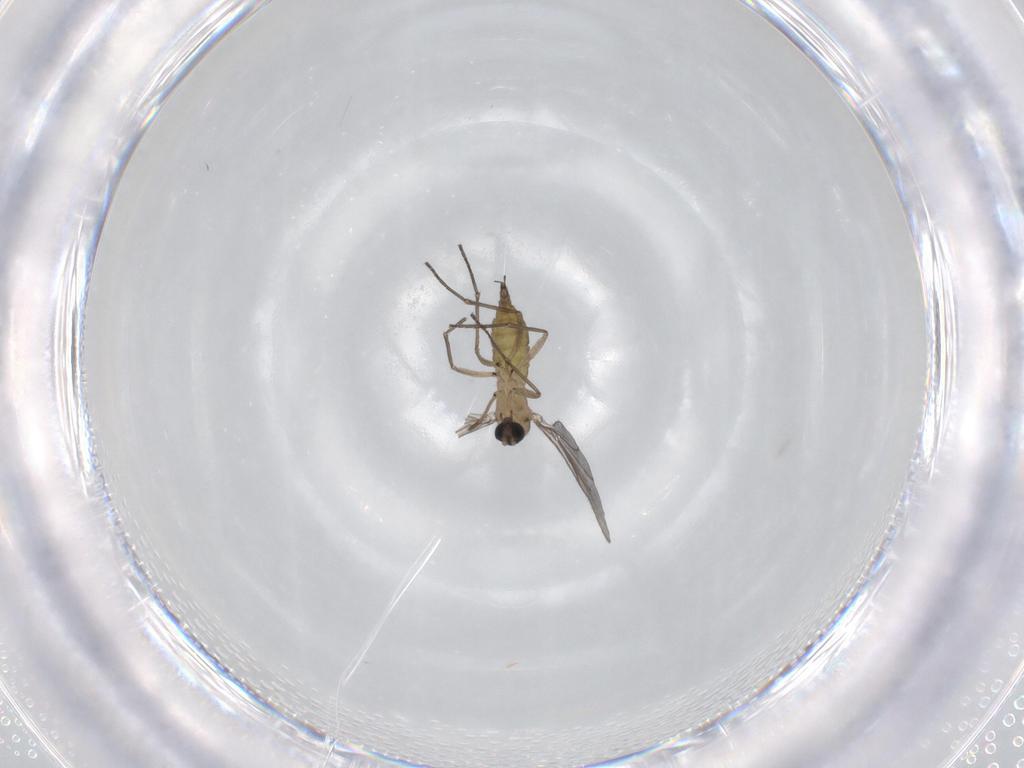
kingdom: Animalia
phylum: Arthropoda
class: Insecta
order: Diptera
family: Sciaridae
